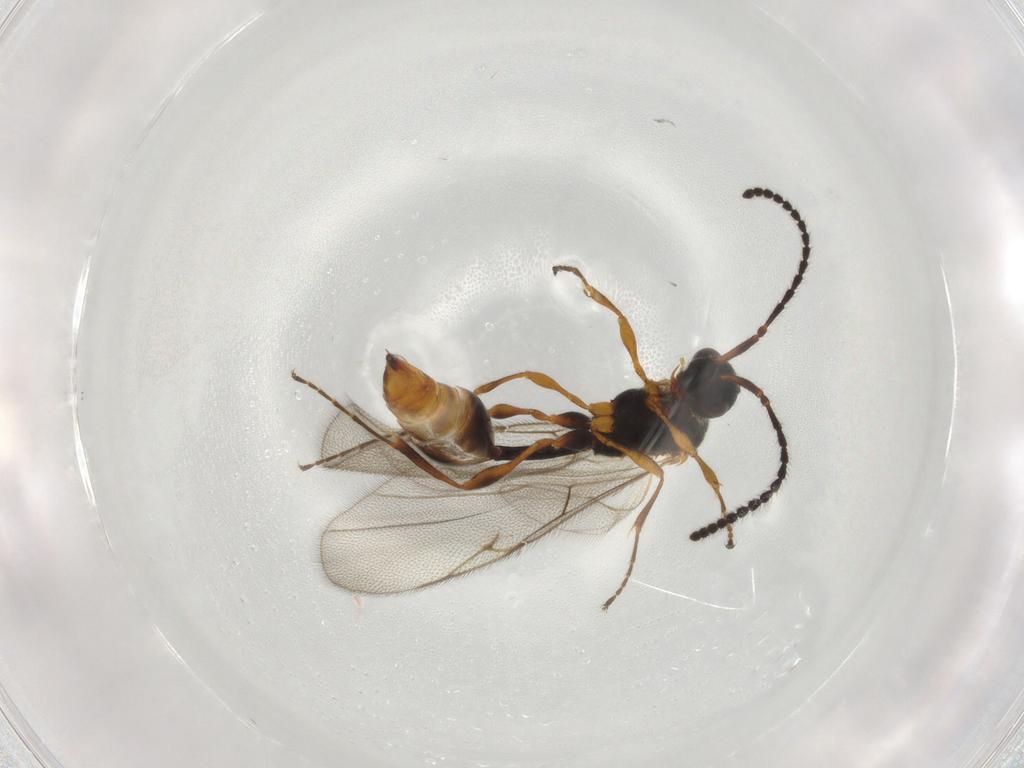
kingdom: Animalia
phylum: Arthropoda
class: Insecta
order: Hymenoptera
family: Diapriidae
